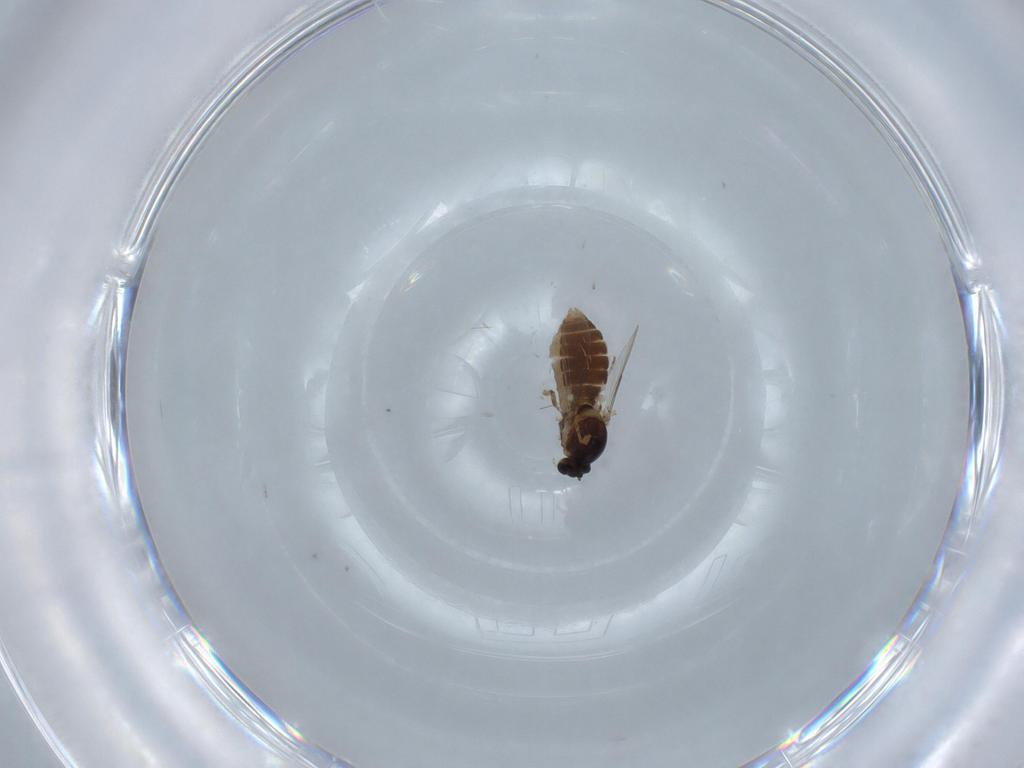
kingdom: Animalia
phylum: Arthropoda
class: Insecta
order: Diptera
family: Ceratopogonidae
